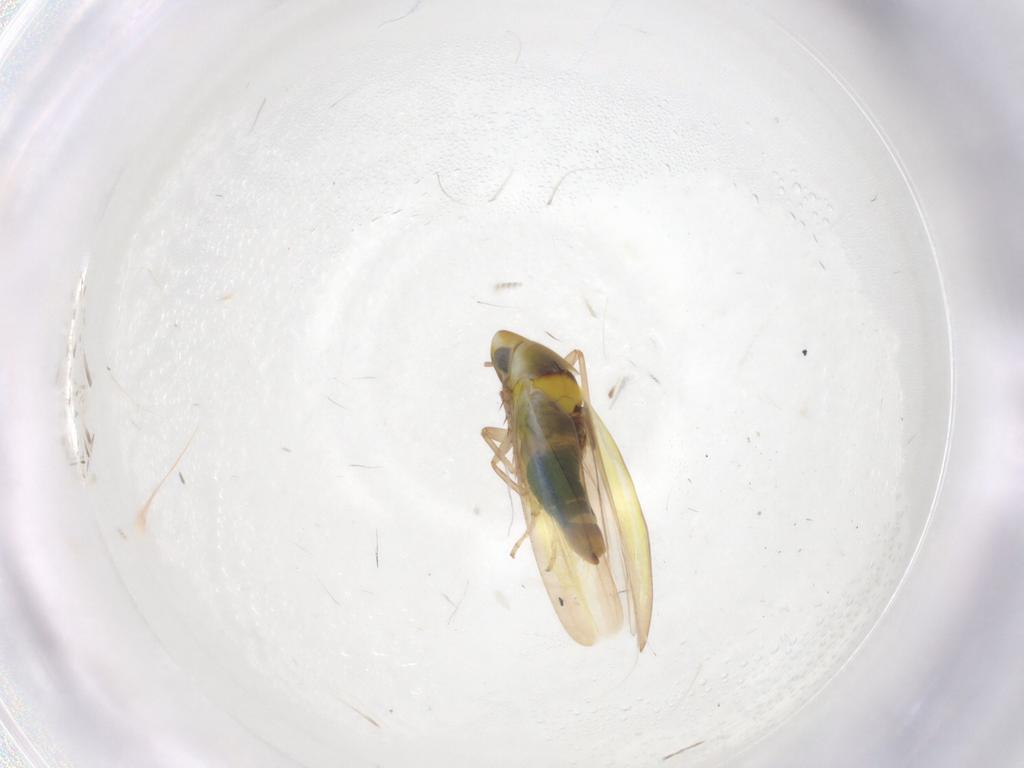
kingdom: Animalia
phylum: Arthropoda
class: Insecta
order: Hemiptera
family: Cicadellidae
